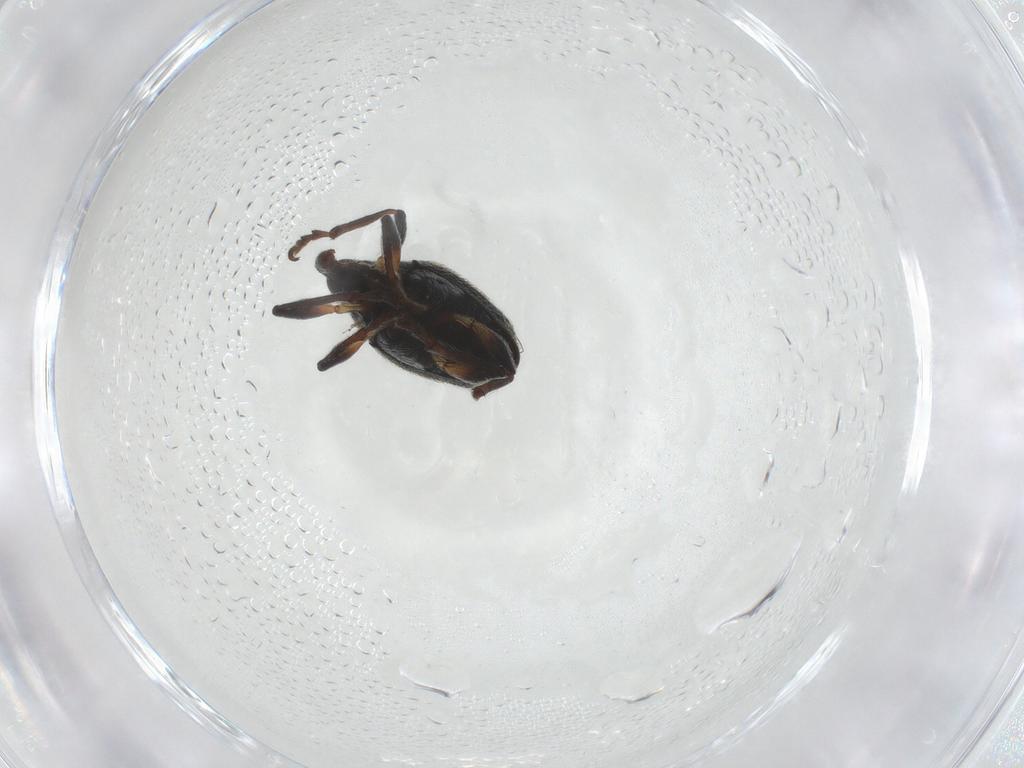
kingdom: Animalia
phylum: Arthropoda
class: Insecta
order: Coleoptera
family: Brentidae
